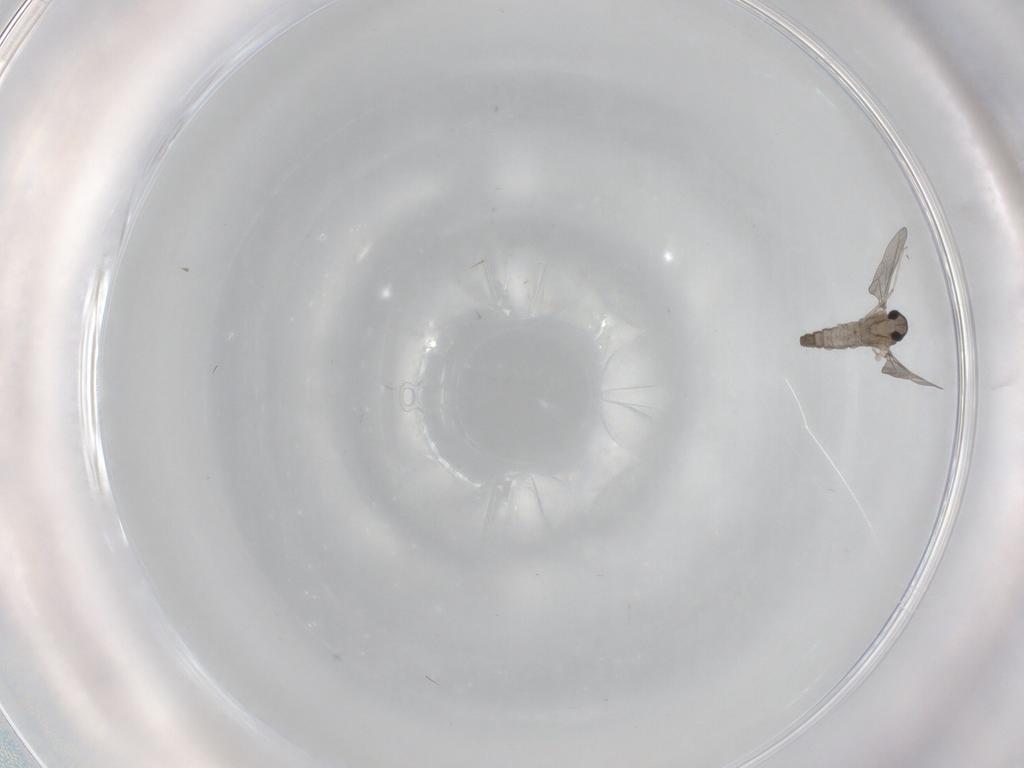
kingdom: Animalia
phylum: Arthropoda
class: Insecta
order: Diptera
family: Cecidomyiidae
